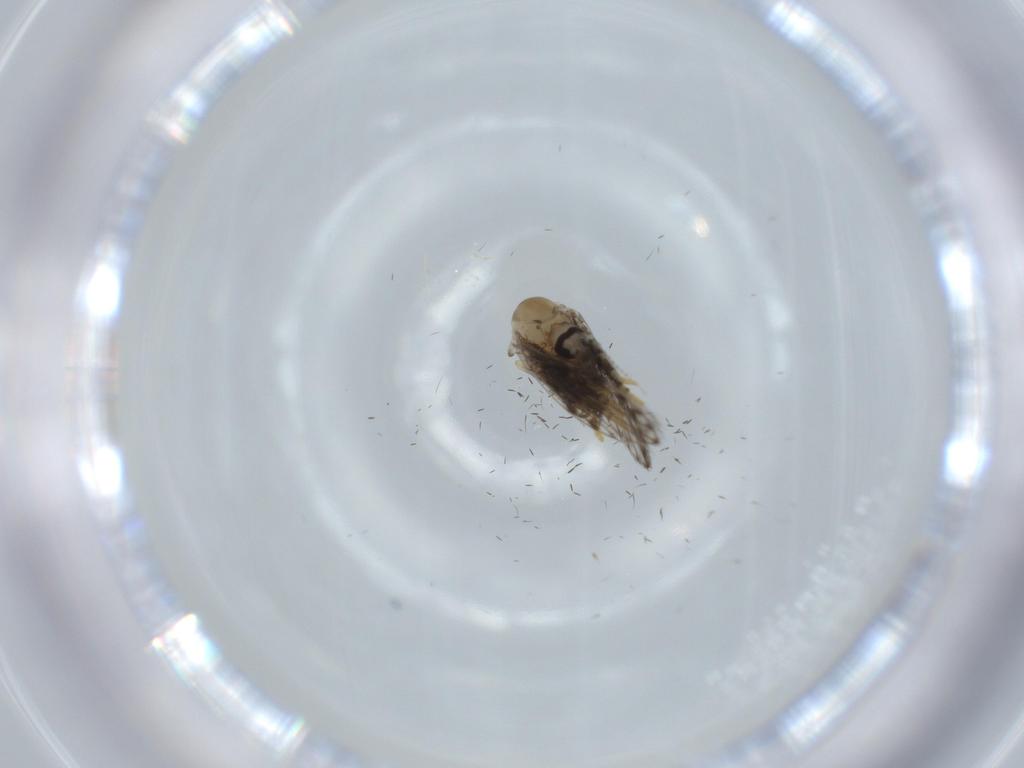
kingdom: Animalia
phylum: Arthropoda
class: Insecta
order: Diptera
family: Psychodidae
